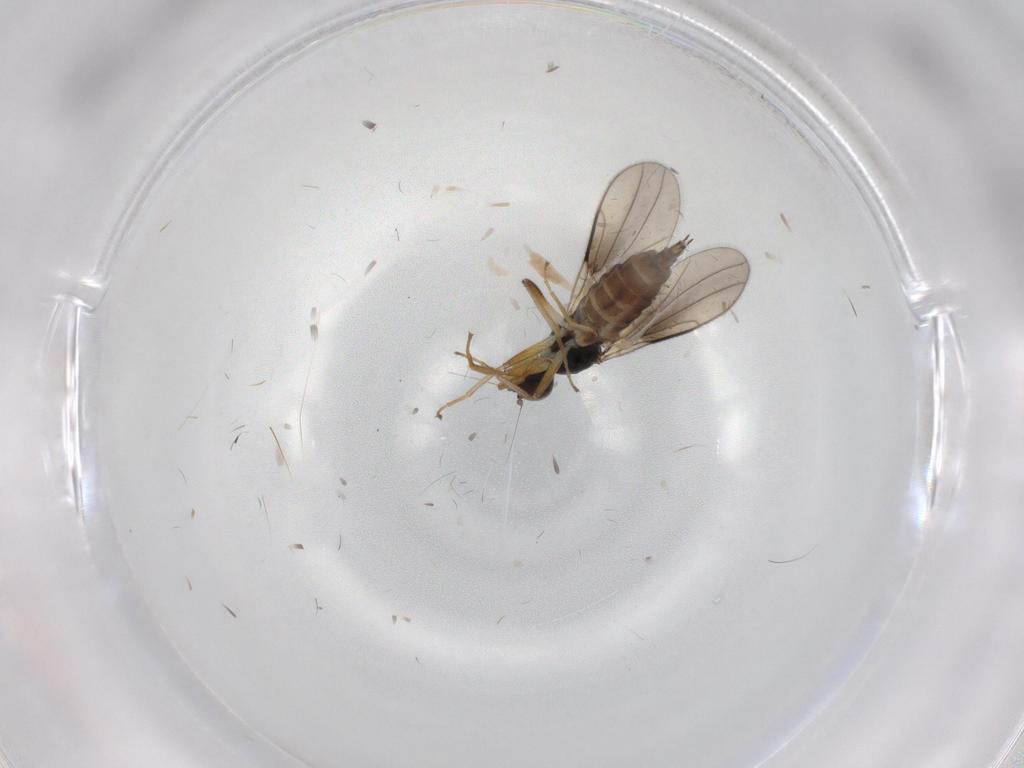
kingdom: Animalia
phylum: Arthropoda
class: Insecta
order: Diptera
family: Hybotidae
